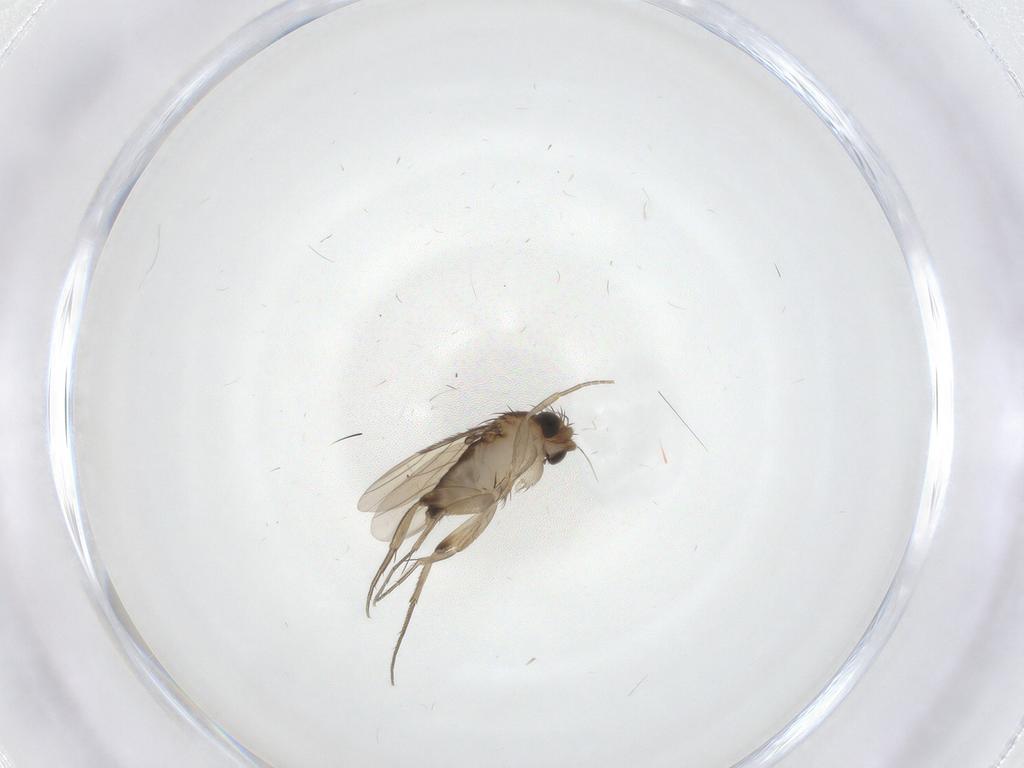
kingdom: Animalia
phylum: Arthropoda
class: Insecta
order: Diptera
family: Phoridae
